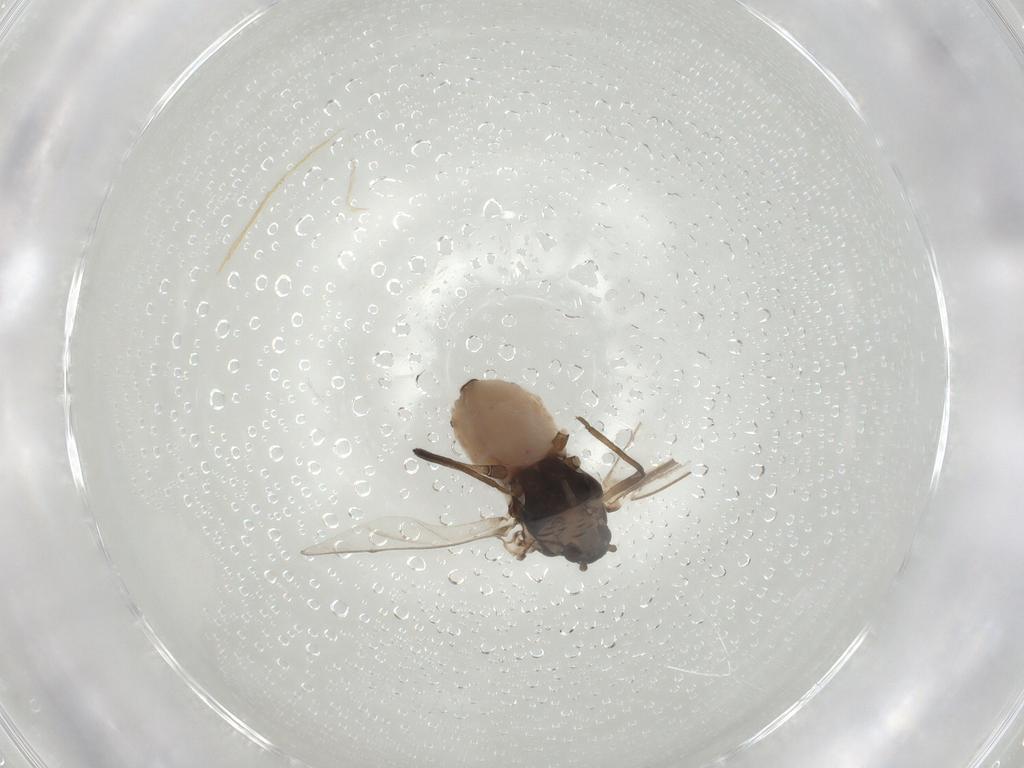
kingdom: Animalia
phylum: Arthropoda
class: Insecta
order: Hemiptera
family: Aphididae
